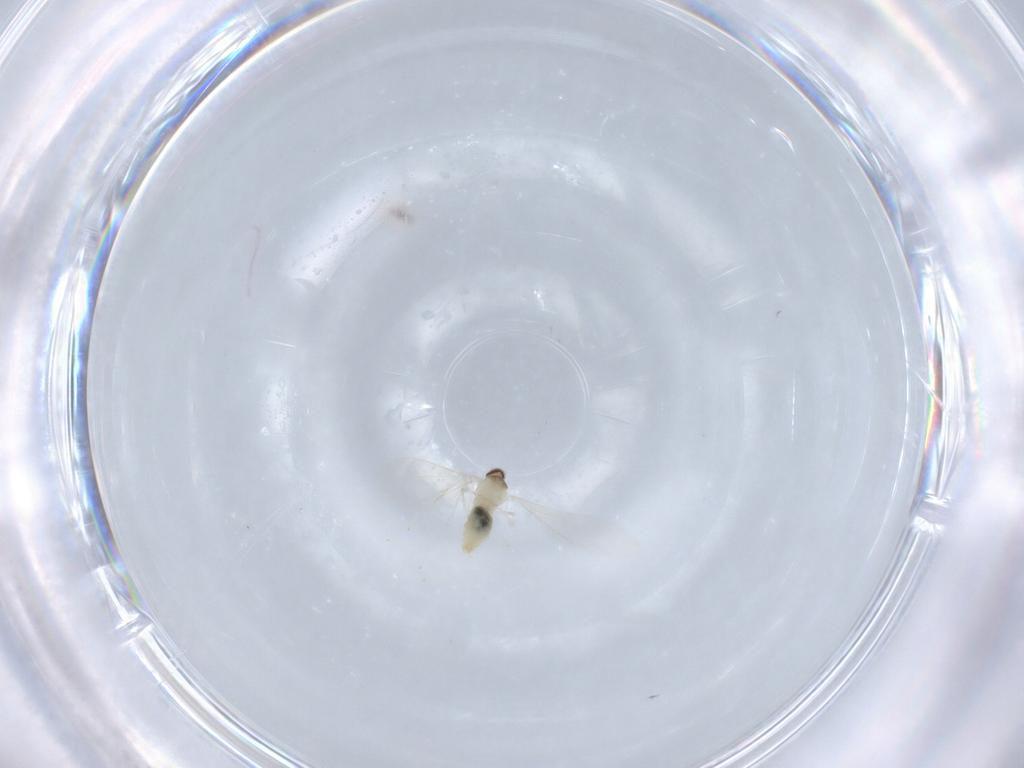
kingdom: Animalia
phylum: Arthropoda
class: Insecta
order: Diptera
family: Cecidomyiidae
